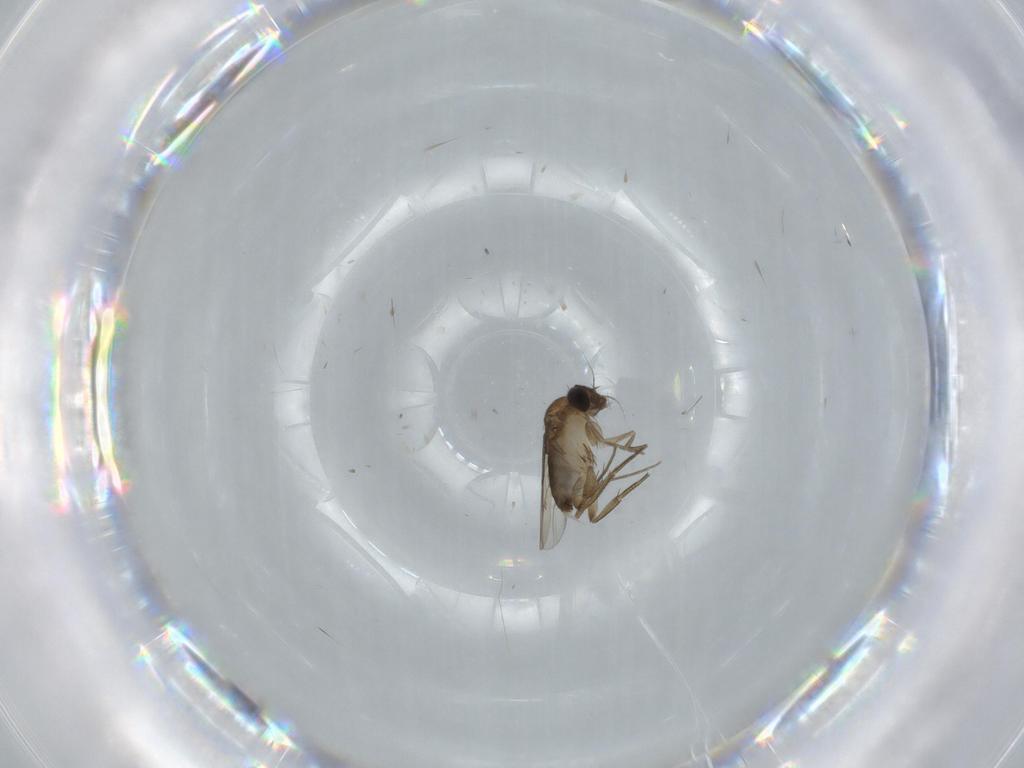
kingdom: Animalia
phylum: Arthropoda
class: Insecta
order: Diptera
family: Phoridae
